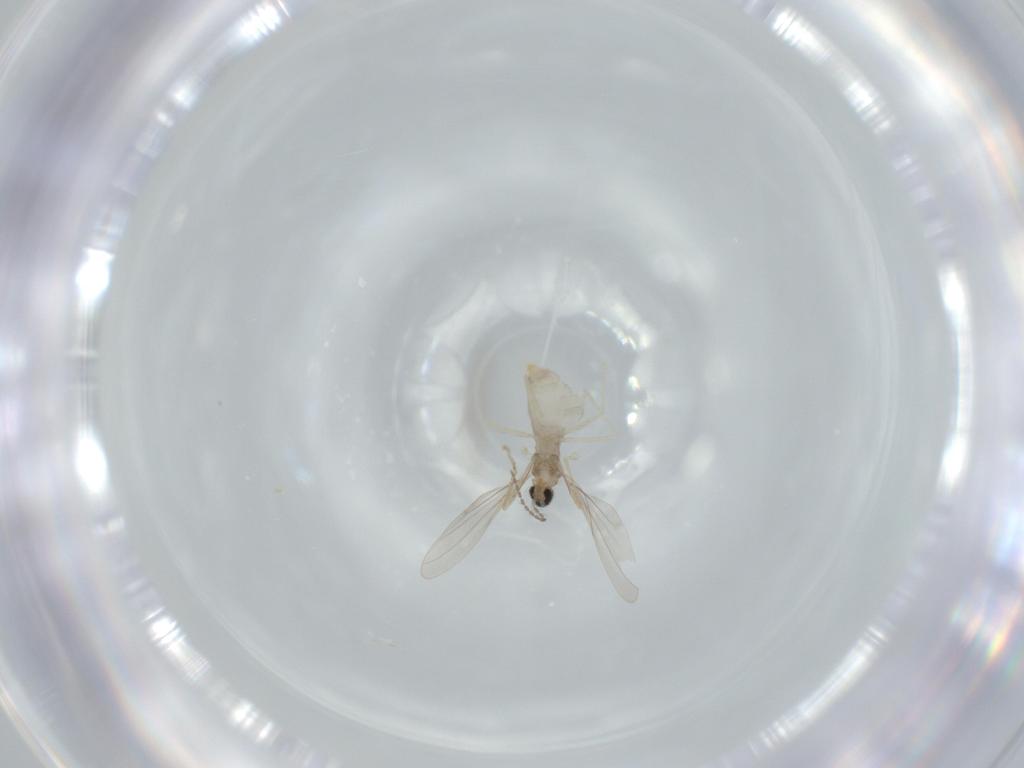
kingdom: Animalia
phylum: Arthropoda
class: Insecta
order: Diptera
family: Cecidomyiidae
